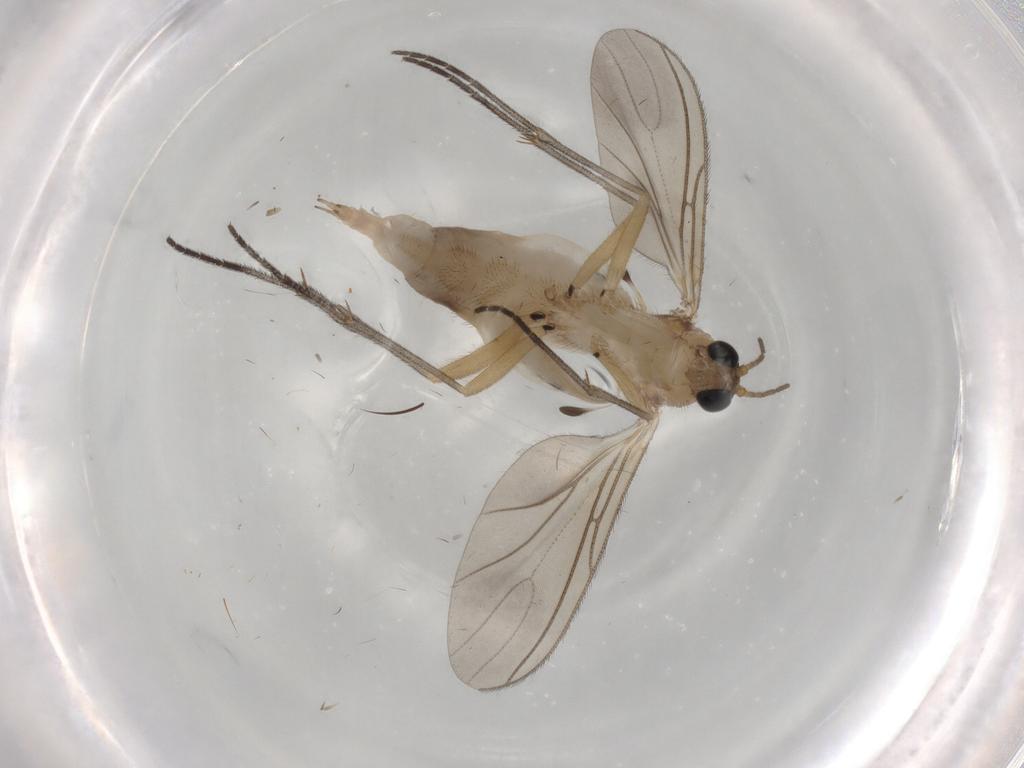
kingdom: Animalia
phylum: Arthropoda
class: Insecta
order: Diptera
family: Sciaridae
